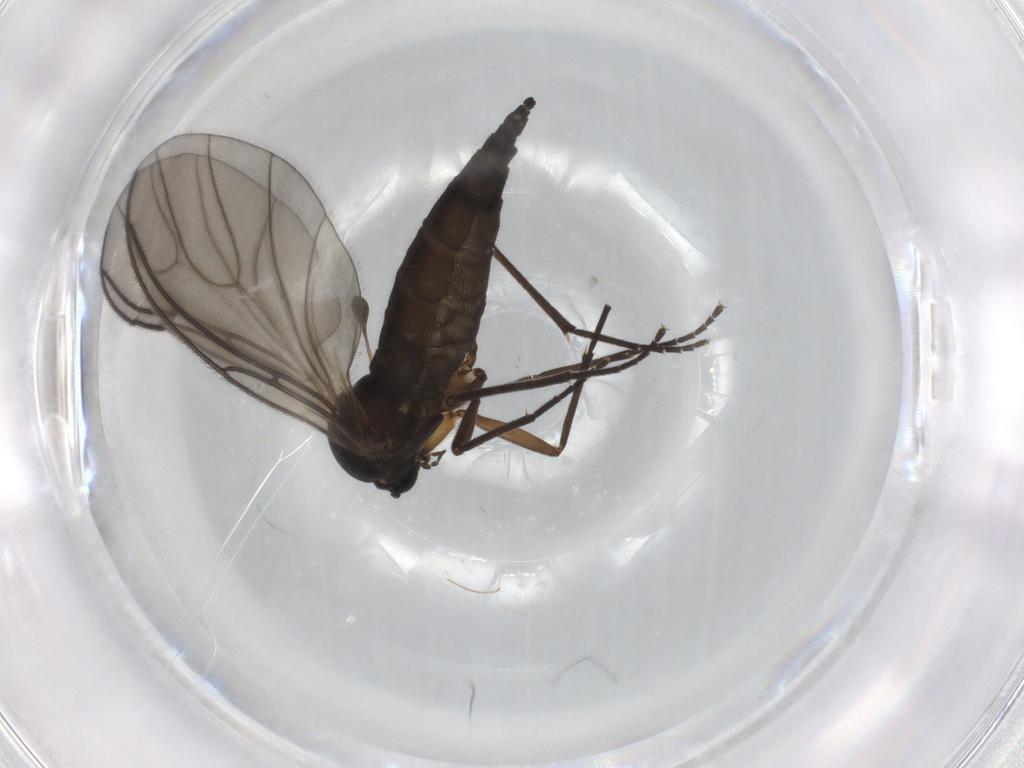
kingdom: Animalia
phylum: Arthropoda
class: Insecta
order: Diptera
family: Sciaridae
